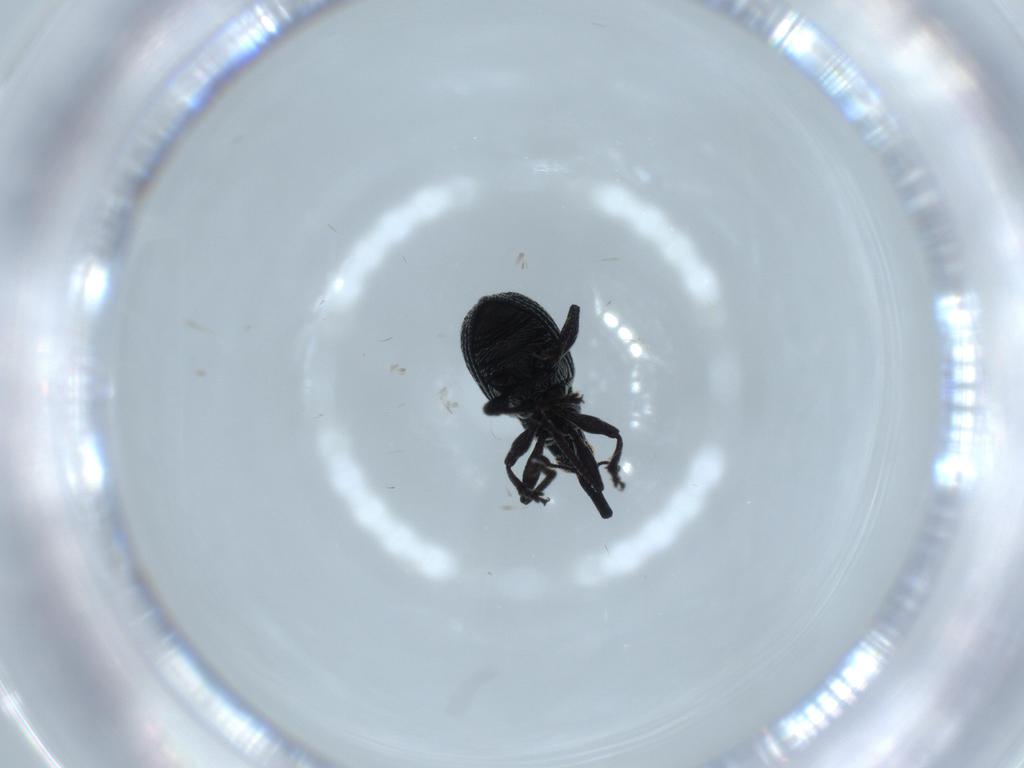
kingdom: Animalia
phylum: Arthropoda
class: Insecta
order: Coleoptera
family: Brentidae
